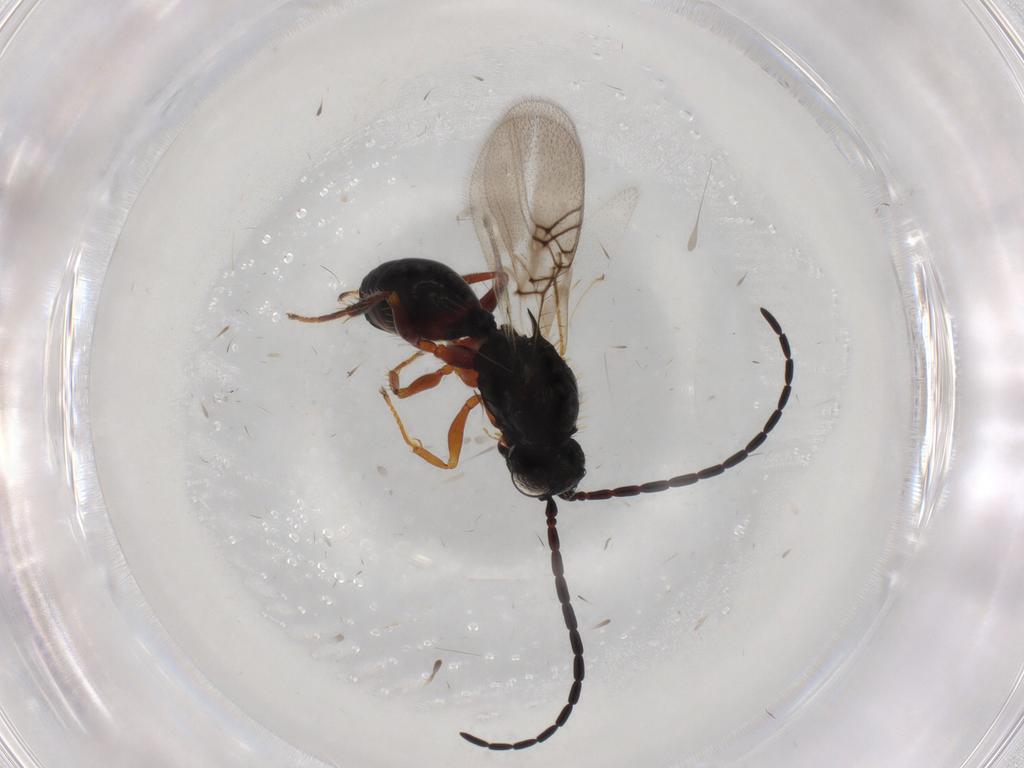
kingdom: Animalia
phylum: Arthropoda
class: Insecta
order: Hymenoptera
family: Figitidae
